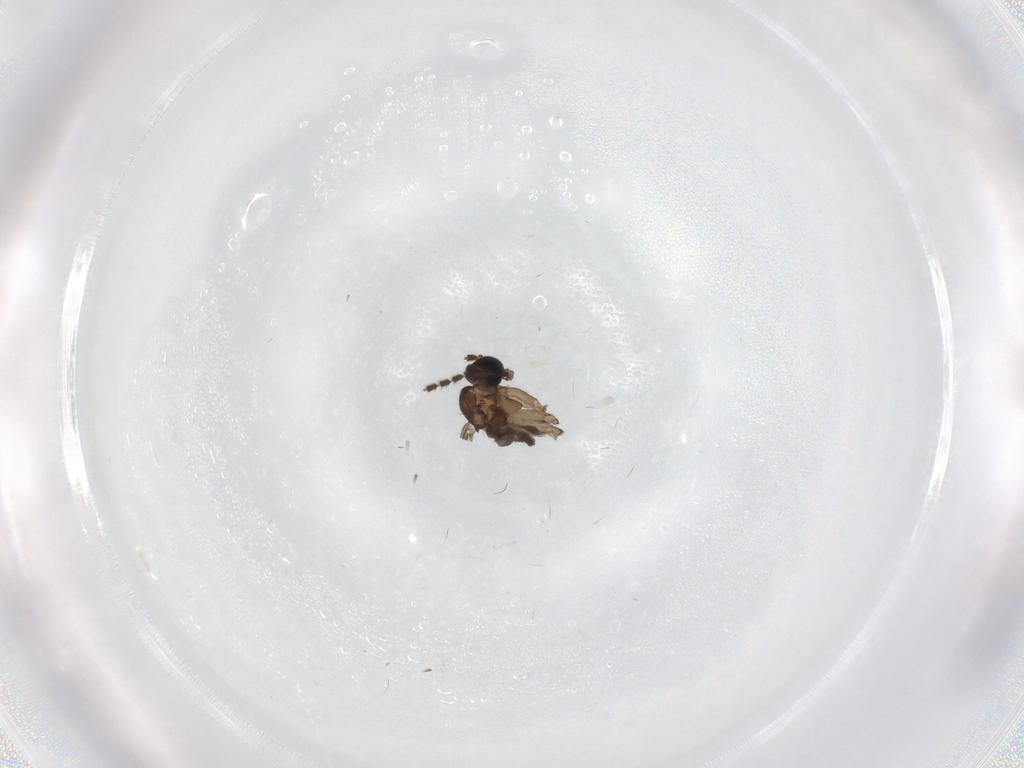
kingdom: Animalia
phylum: Arthropoda
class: Insecta
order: Diptera
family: Sciaridae
